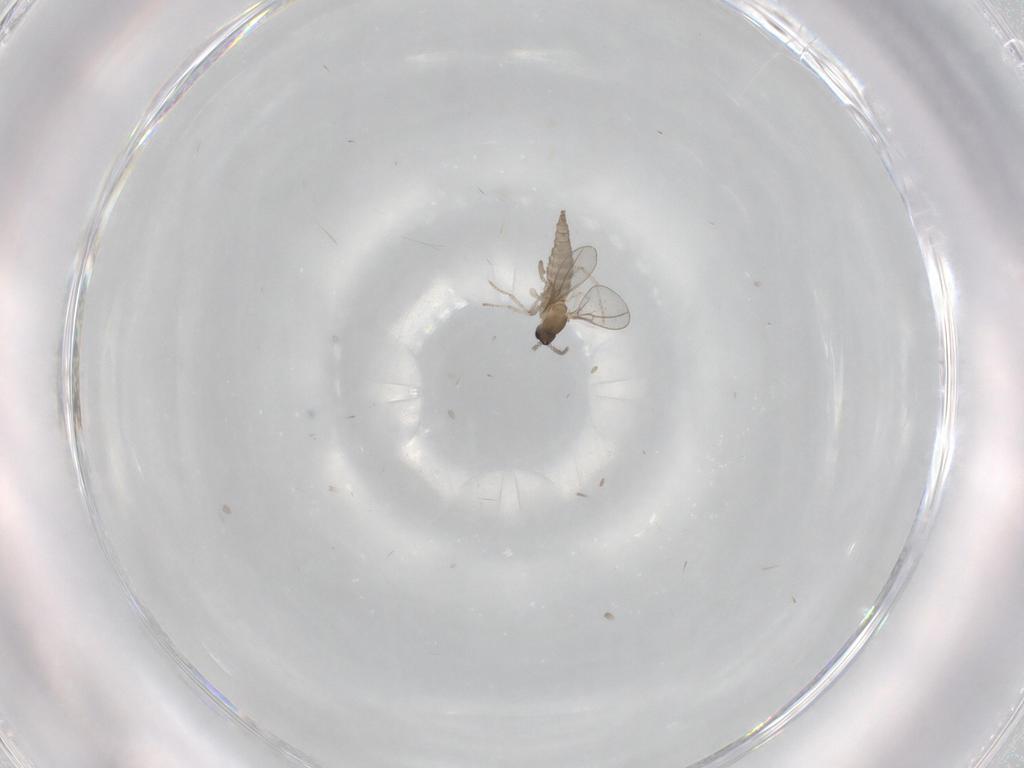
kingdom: Animalia
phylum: Arthropoda
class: Insecta
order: Diptera
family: Cecidomyiidae
